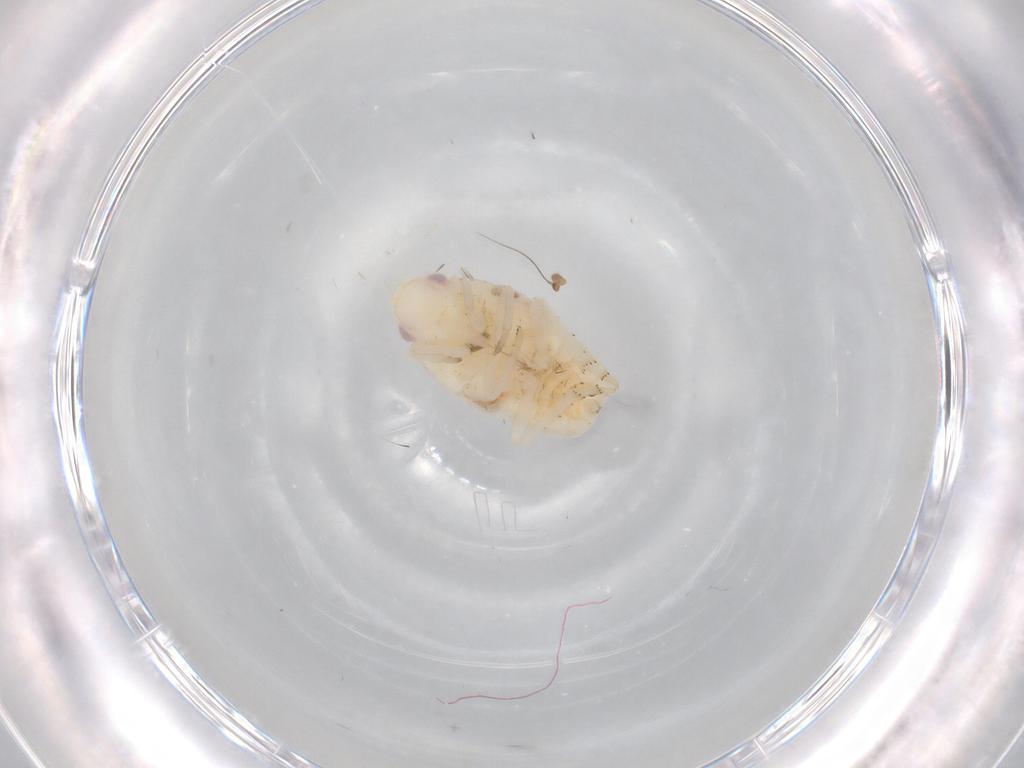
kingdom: Animalia
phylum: Arthropoda
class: Insecta
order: Hemiptera
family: Flatidae
